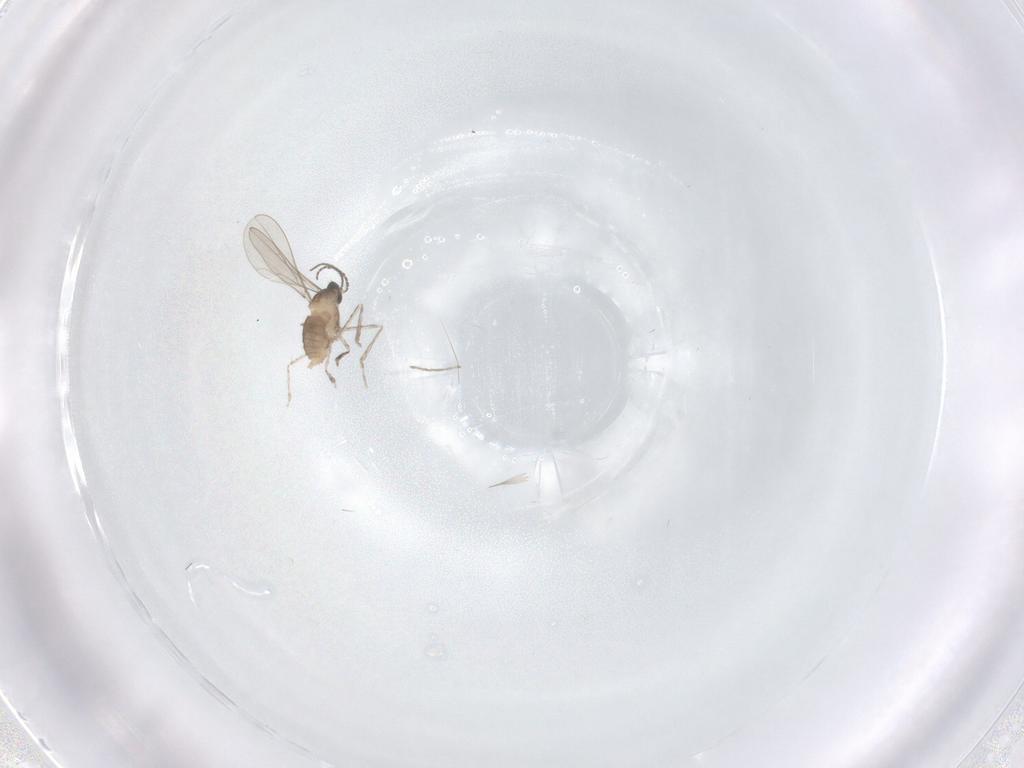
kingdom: Animalia
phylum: Arthropoda
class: Insecta
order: Diptera
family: Cecidomyiidae
